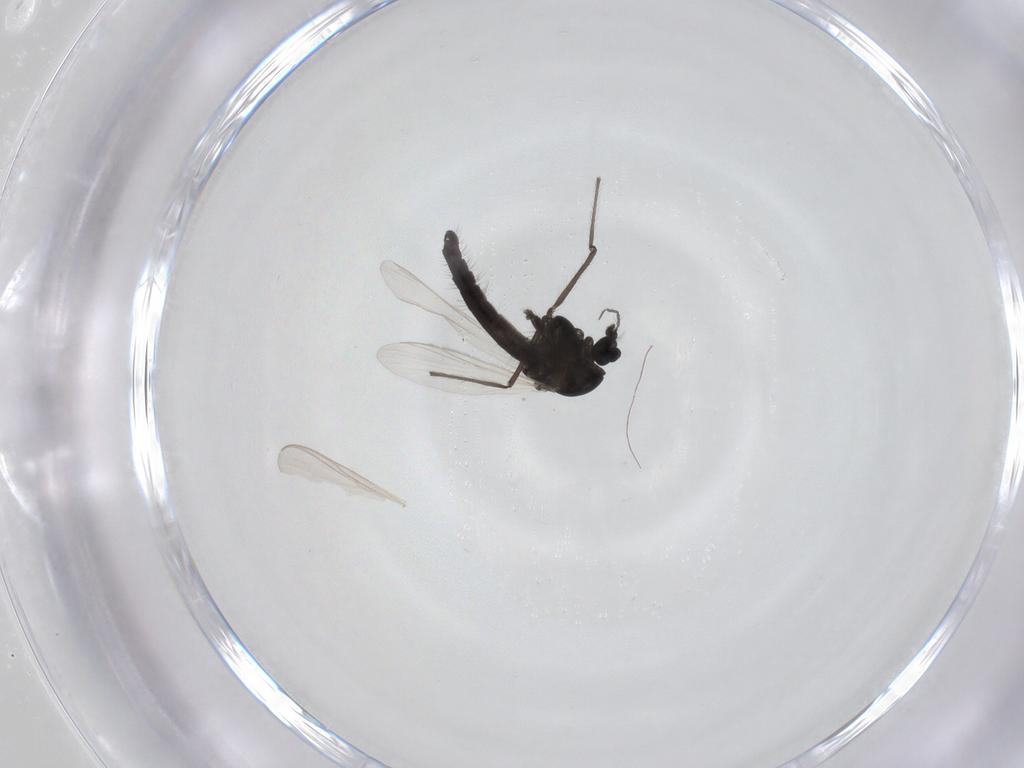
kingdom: Animalia
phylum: Arthropoda
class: Insecta
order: Diptera
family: Chironomidae
